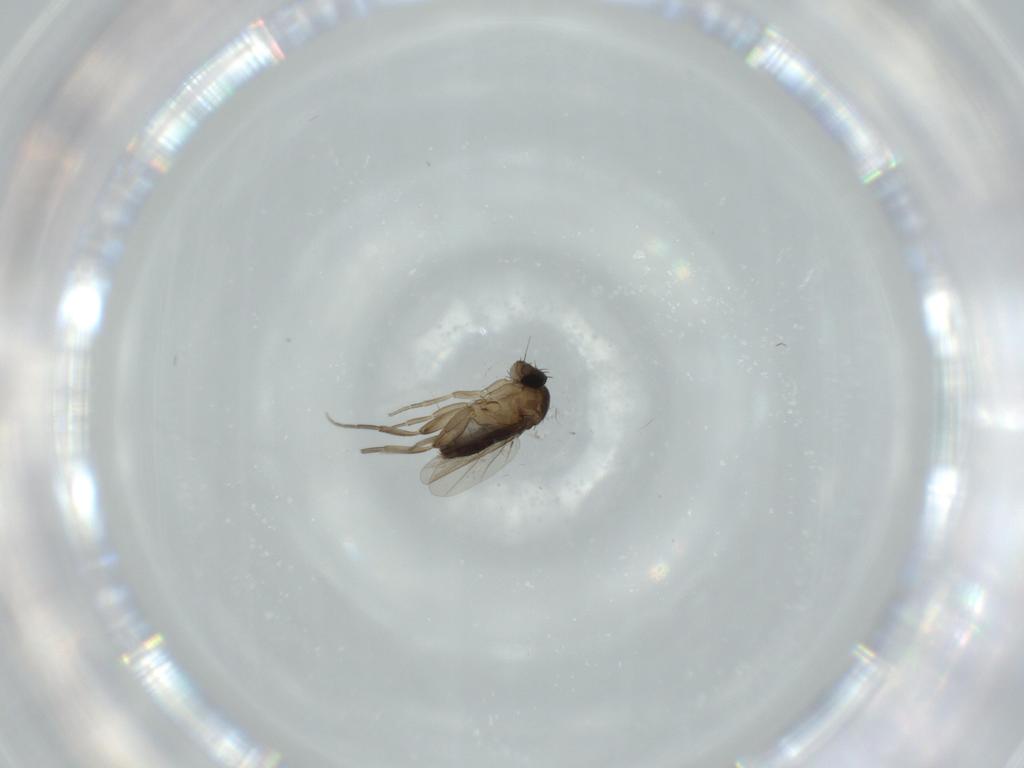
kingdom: Animalia
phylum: Arthropoda
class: Insecta
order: Diptera
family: Phoridae
